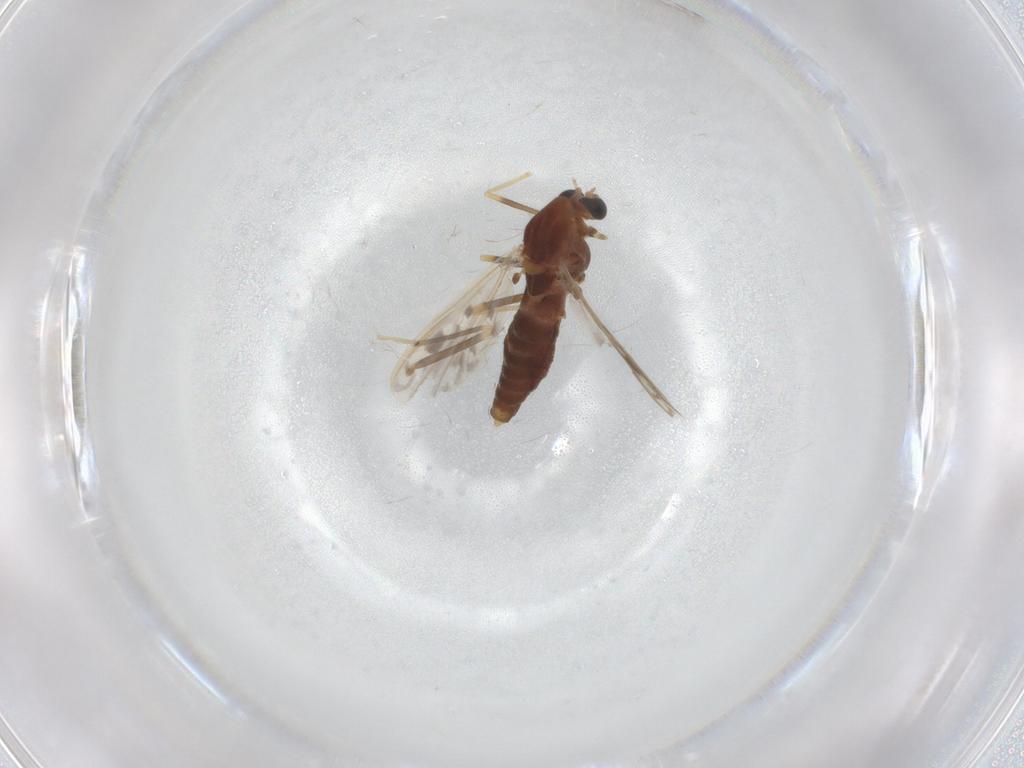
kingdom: Animalia
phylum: Arthropoda
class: Insecta
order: Diptera
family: Chironomidae
